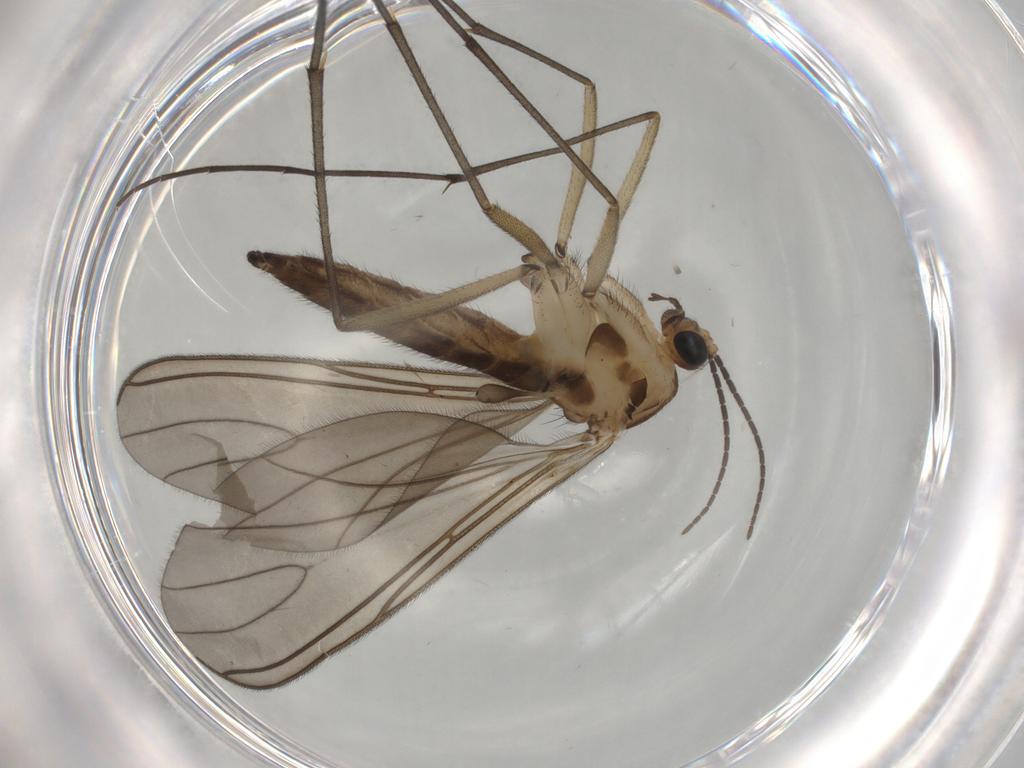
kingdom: Animalia
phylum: Arthropoda
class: Insecta
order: Diptera
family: Sciaridae
